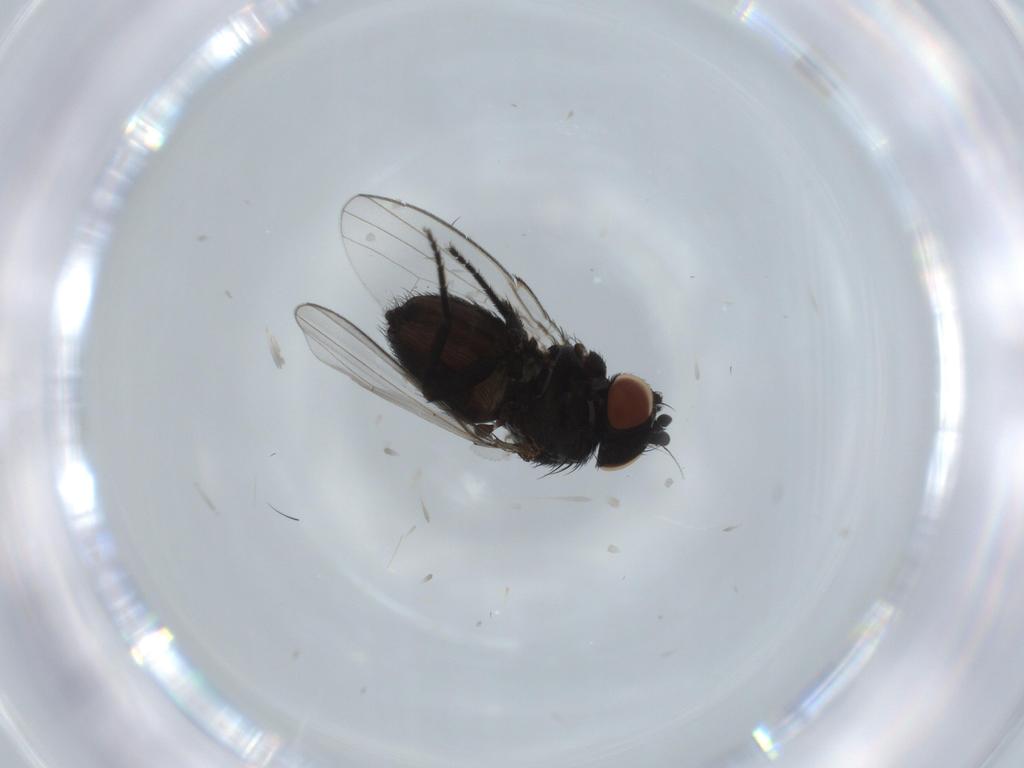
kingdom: Animalia
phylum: Arthropoda
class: Insecta
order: Diptera
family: Milichiidae
